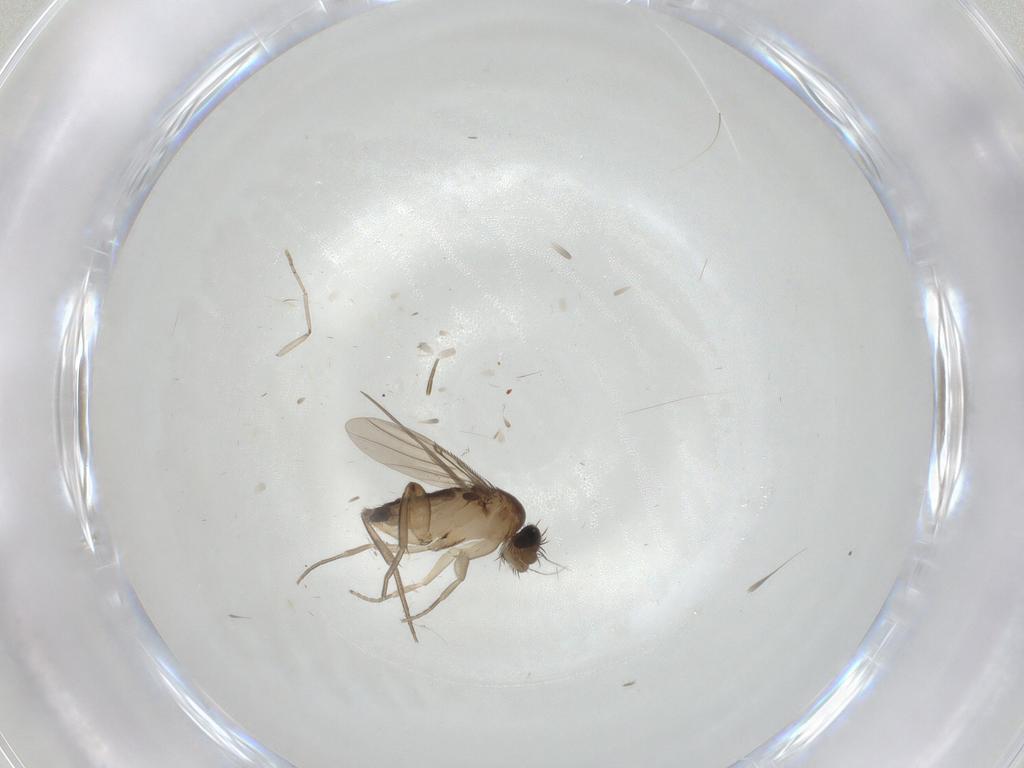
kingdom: Animalia
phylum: Arthropoda
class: Insecta
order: Diptera
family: Phoridae
